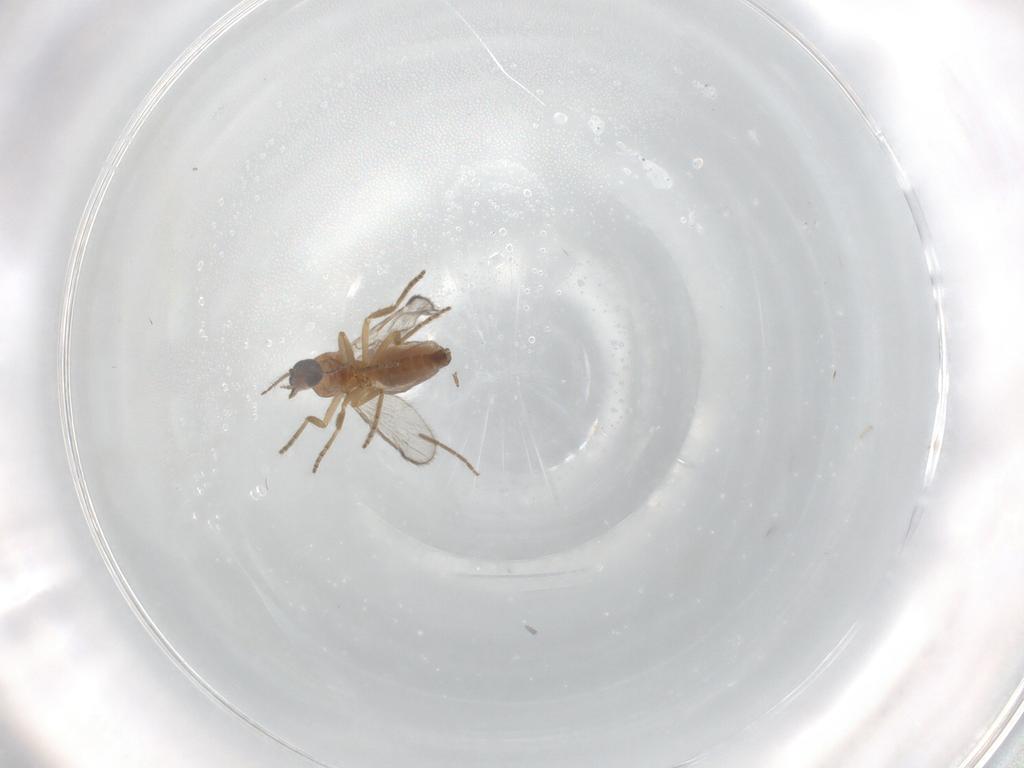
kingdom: Animalia
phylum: Arthropoda
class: Insecta
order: Diptera
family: Ceratopogonidae
